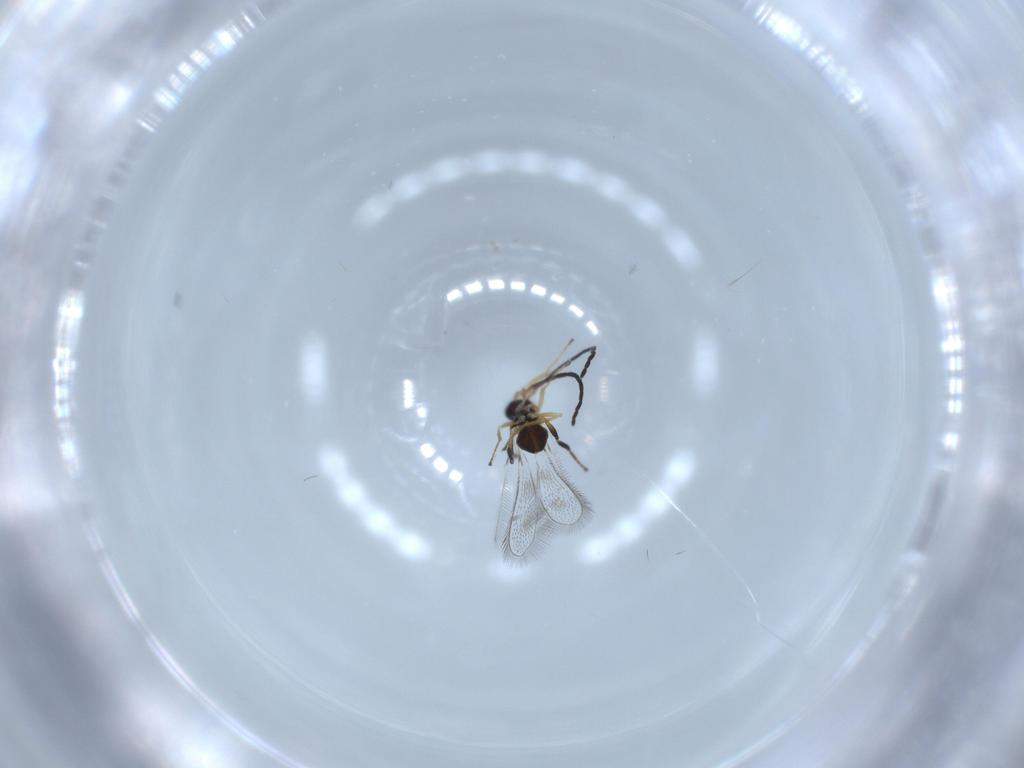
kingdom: Animalia
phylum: Arthropoda
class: Insecta
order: Hymenoptera
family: Mymaridae
